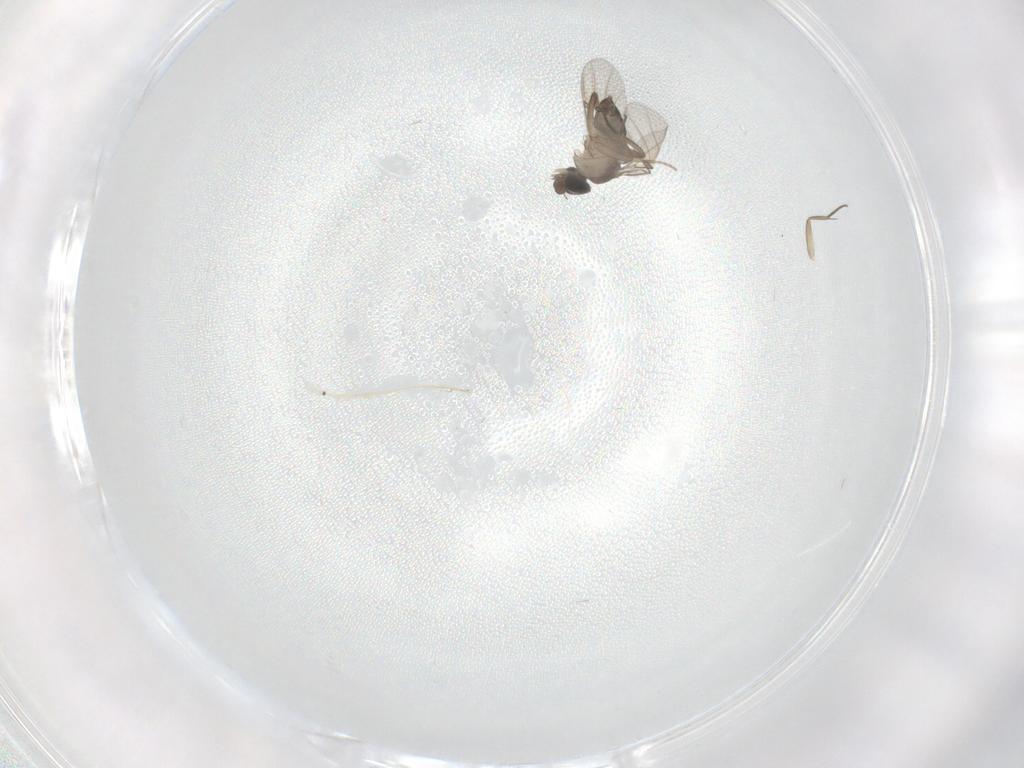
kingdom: Animalia
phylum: Arthropoda
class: Insecta
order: Diptera
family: Phoridae
